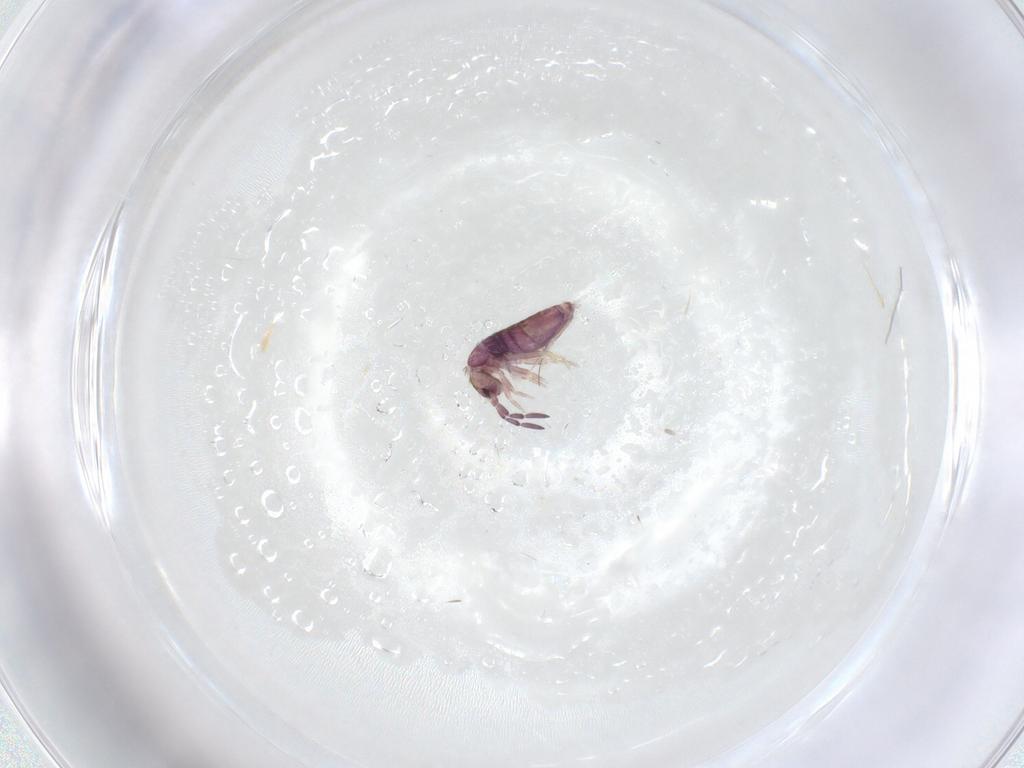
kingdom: Animalia
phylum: Arthropoda
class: Collembola
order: Entomobryomorpha
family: Entomobryidae
